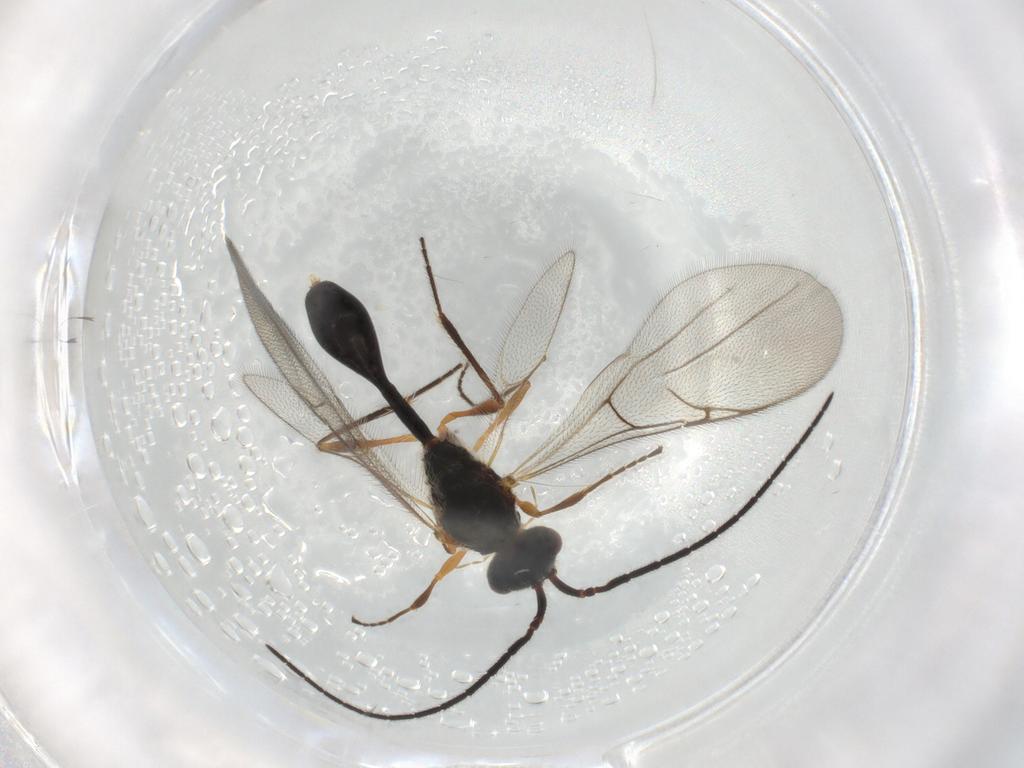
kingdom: Animalia
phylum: Arthropoda
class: Insecta
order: Hymenoptera
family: Diapriidae
